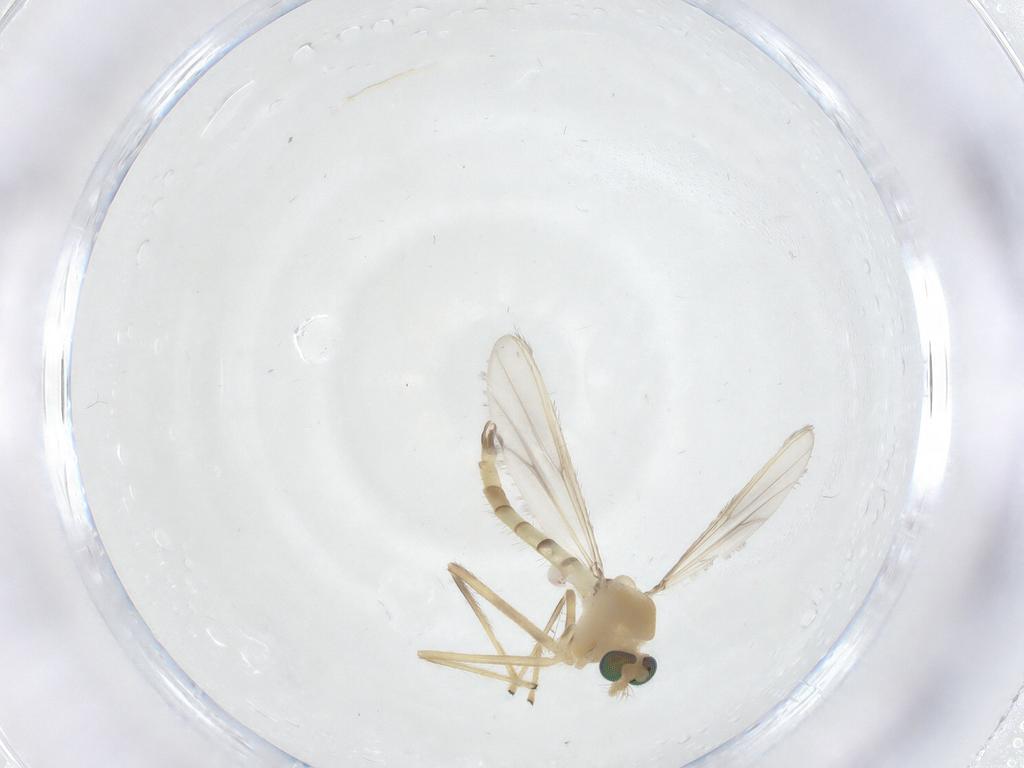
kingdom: Animalia
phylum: Arthropoda
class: Insecta
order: Diptera
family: Chironomidae
